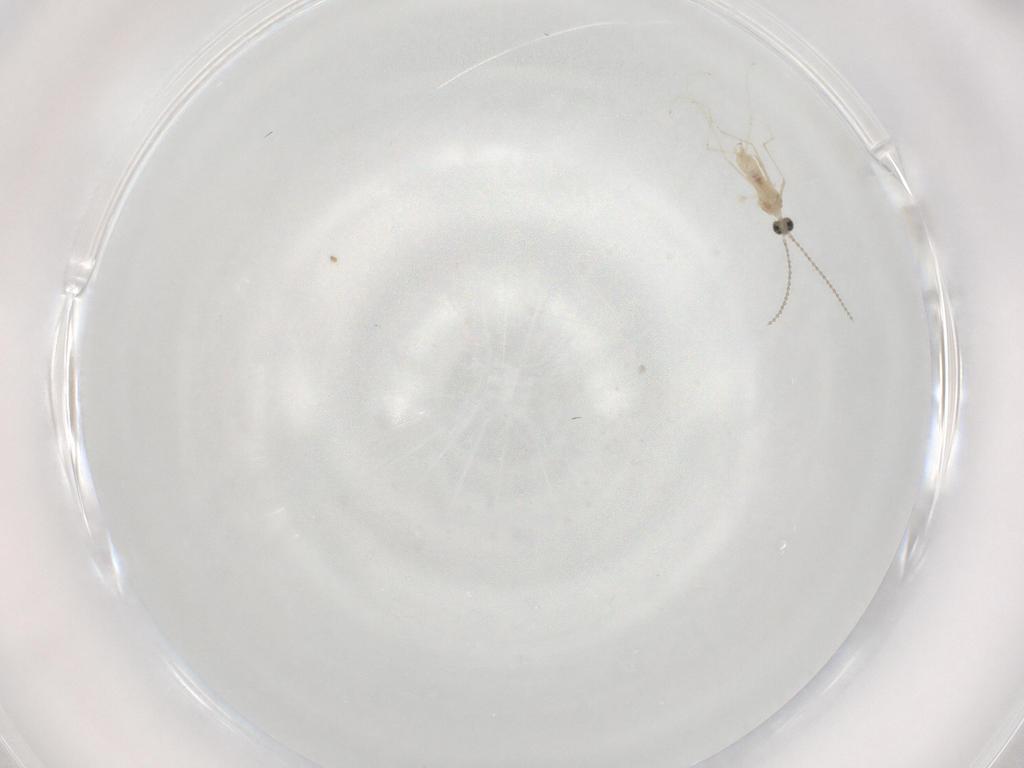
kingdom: Animalia
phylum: Arthropoda
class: Insecta
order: Diptera
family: Cecidomyiidae
